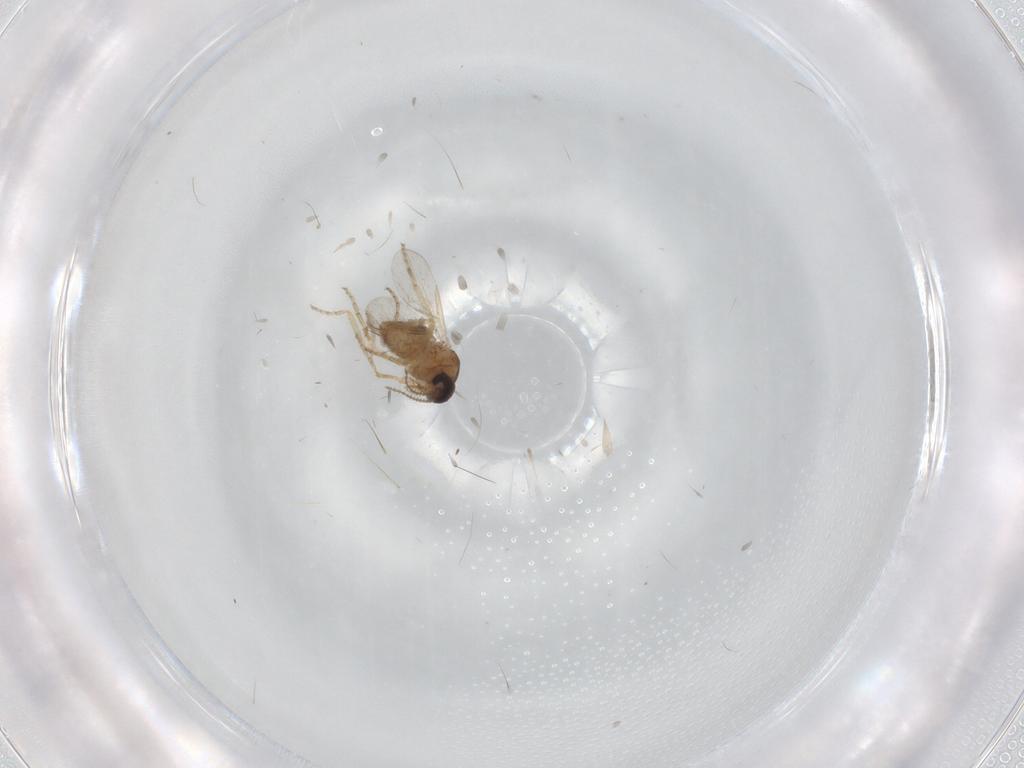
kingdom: Animalia
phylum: Arthropoda
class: Insecta
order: Diptera
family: Ceratopogonidae
